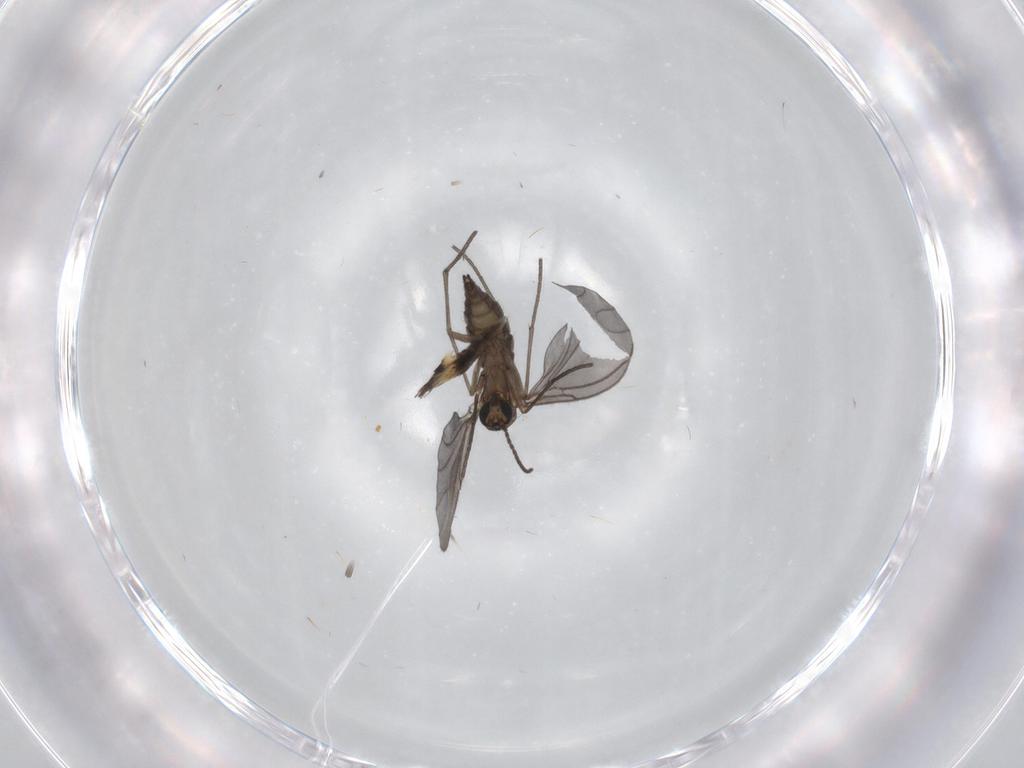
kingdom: Animalia
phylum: Arthropoda
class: Insecta
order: Diptera
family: Sciaridae
